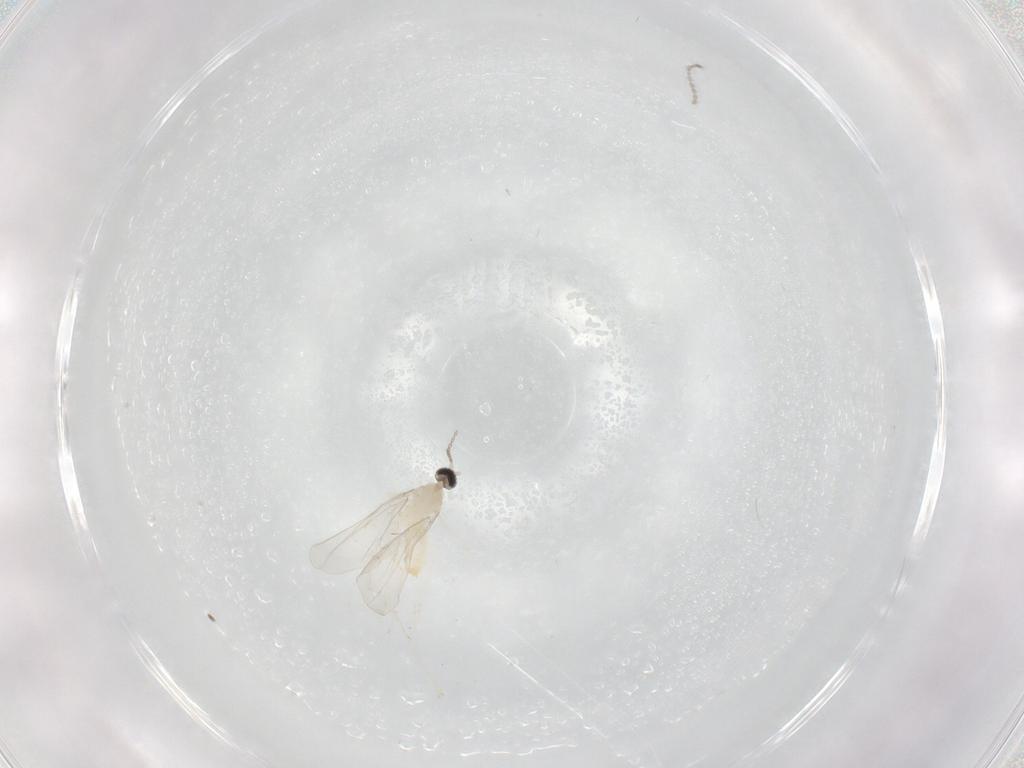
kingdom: Animalia
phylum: Arthropoda
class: Insecta
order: Diptera
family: Cecidomyiidae
